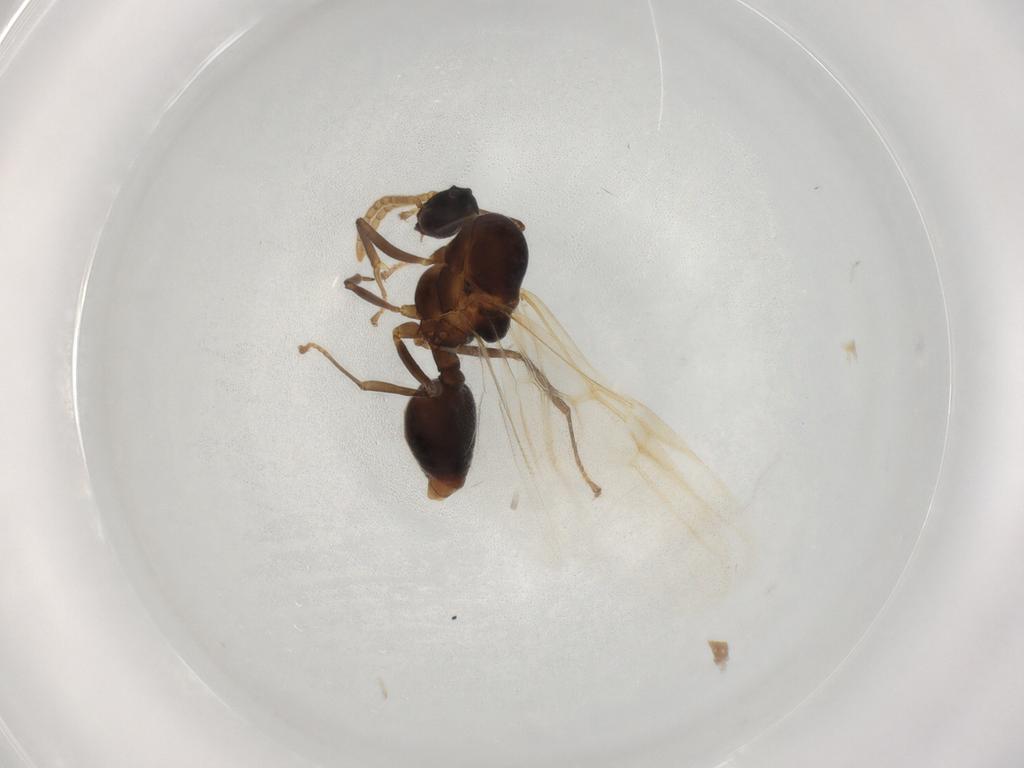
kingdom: Animalia
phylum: Arthropoda
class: Insecta
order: Hymenoptera
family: Formicidae
